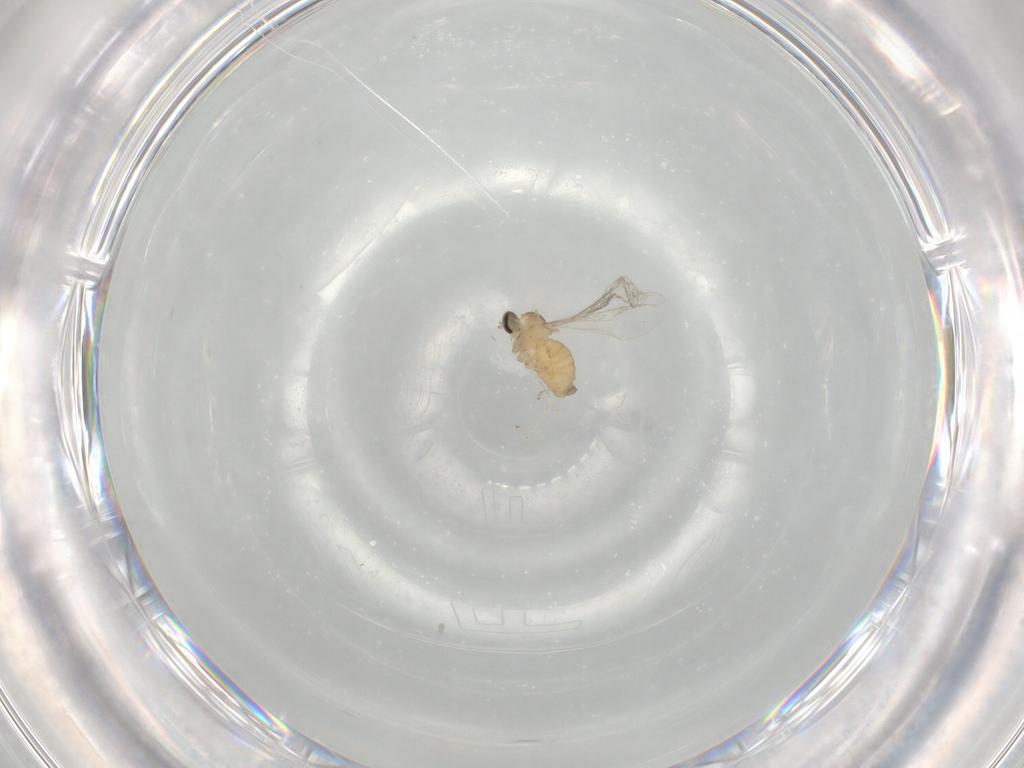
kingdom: Animalia
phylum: Arthropoda
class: Insecta
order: Diptera
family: Cecidomyiidae
